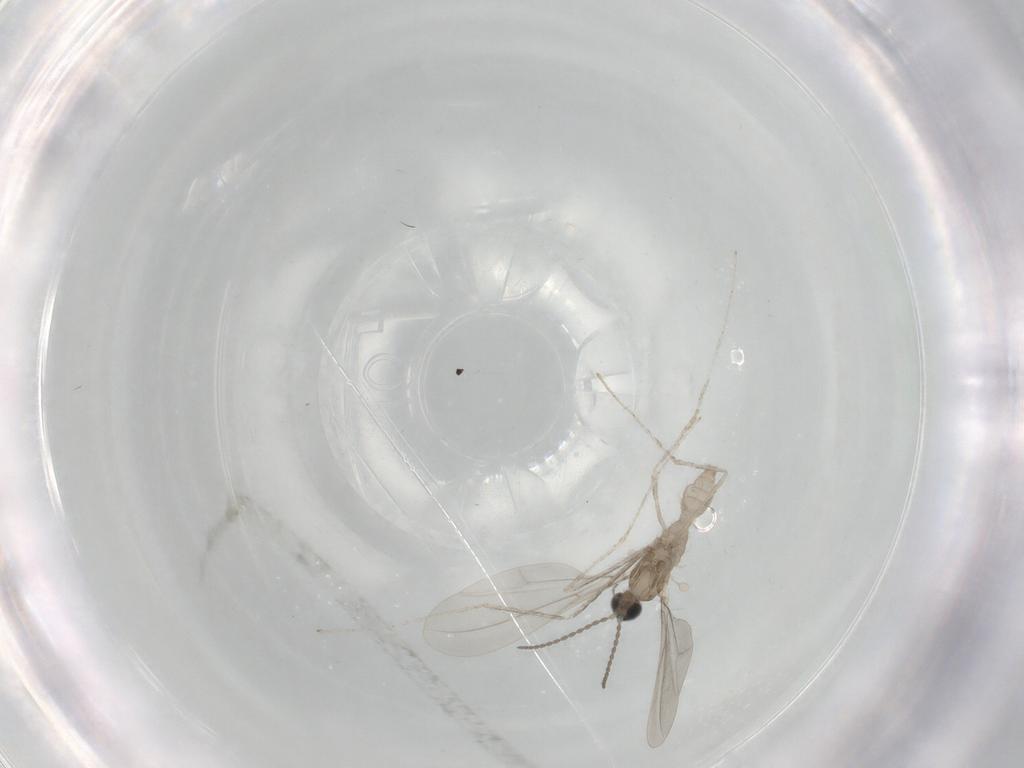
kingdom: Animalia
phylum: Arthropoda
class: Insecta
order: Diptera
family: Cecidomyiidae
